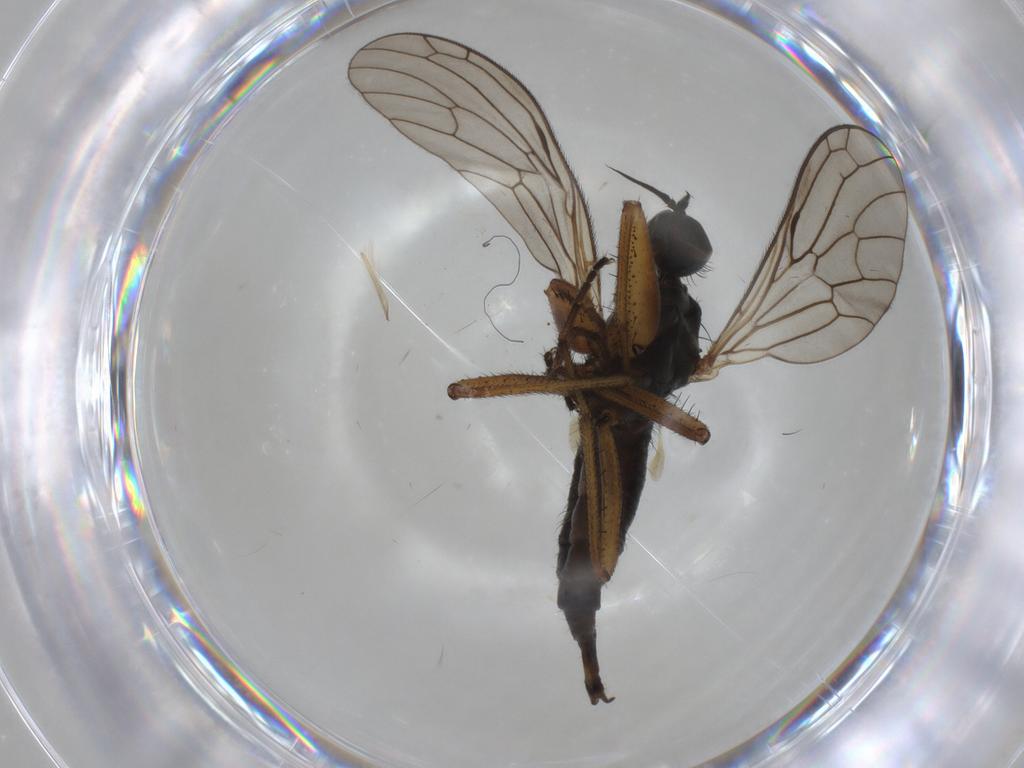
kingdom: Animalia
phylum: Arthropoda
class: Insecta
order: Diptera
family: Empididae
